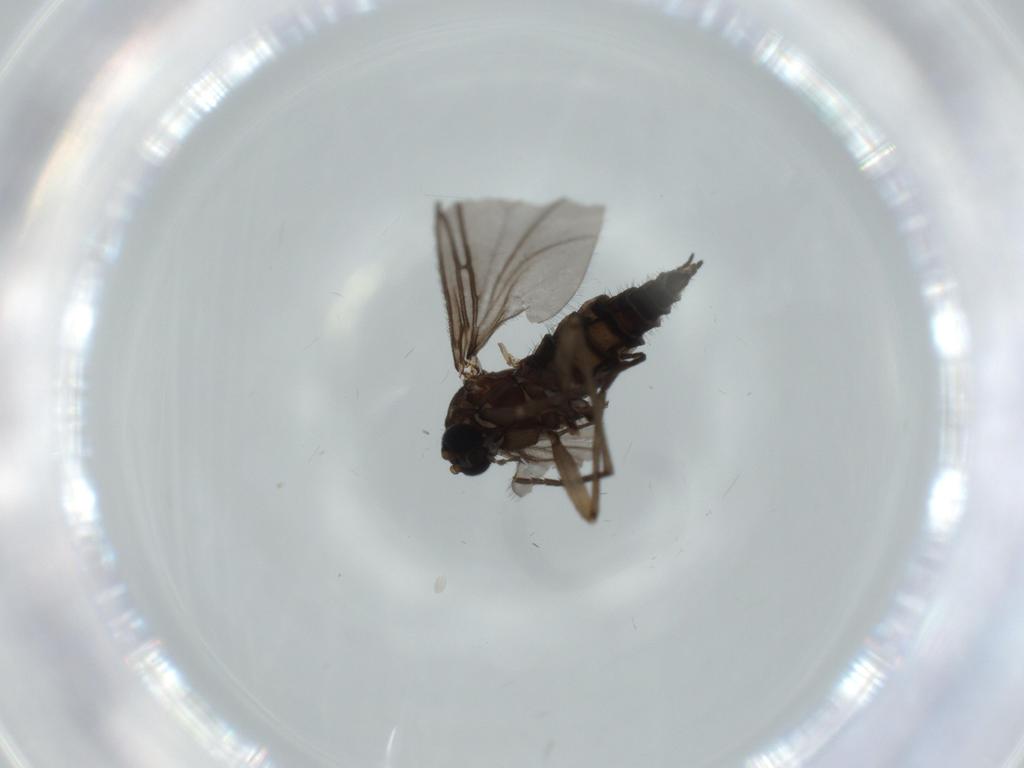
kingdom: Animalia
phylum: Arthropoda
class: Insecta
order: Diptera
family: Sciaridae
